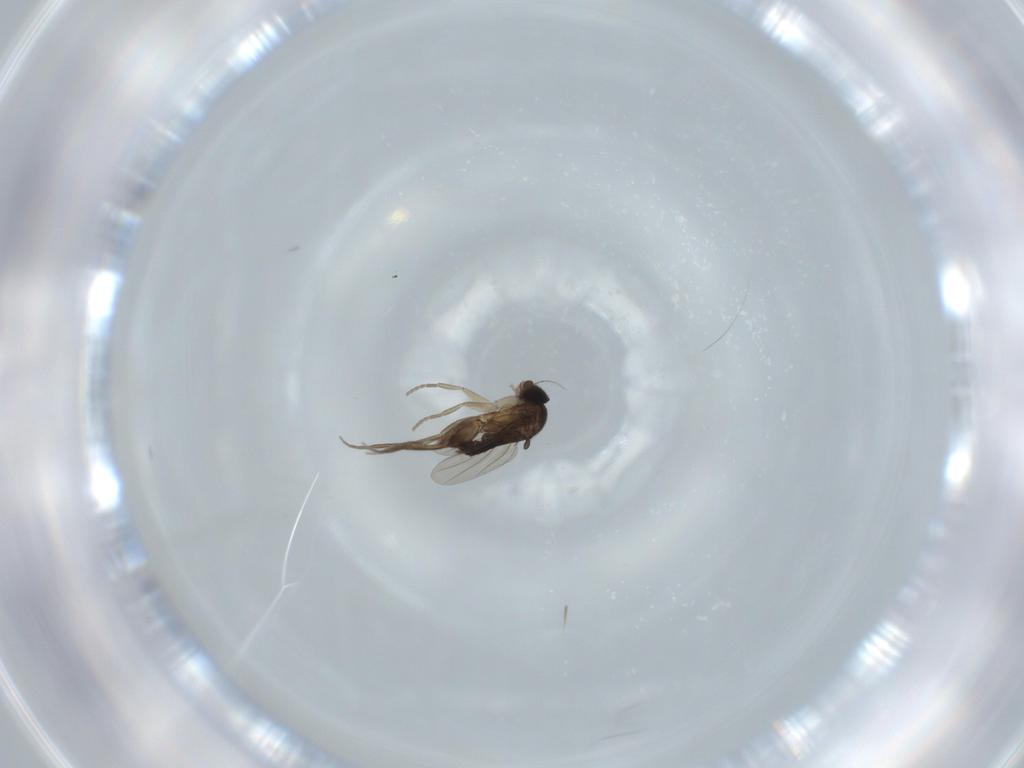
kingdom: Animalia
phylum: Arthropoda
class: Insecta
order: Diptera
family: Phoridae
